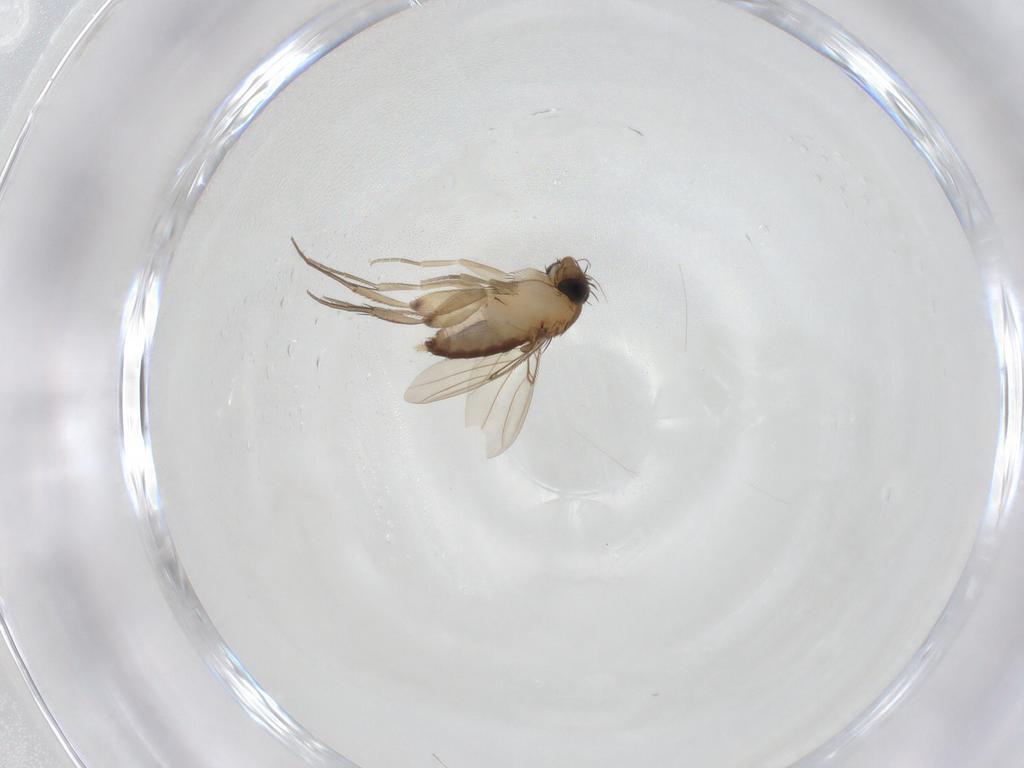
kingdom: Animalia
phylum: Arthropoda
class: Insecta
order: Diptera
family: Phoridae
